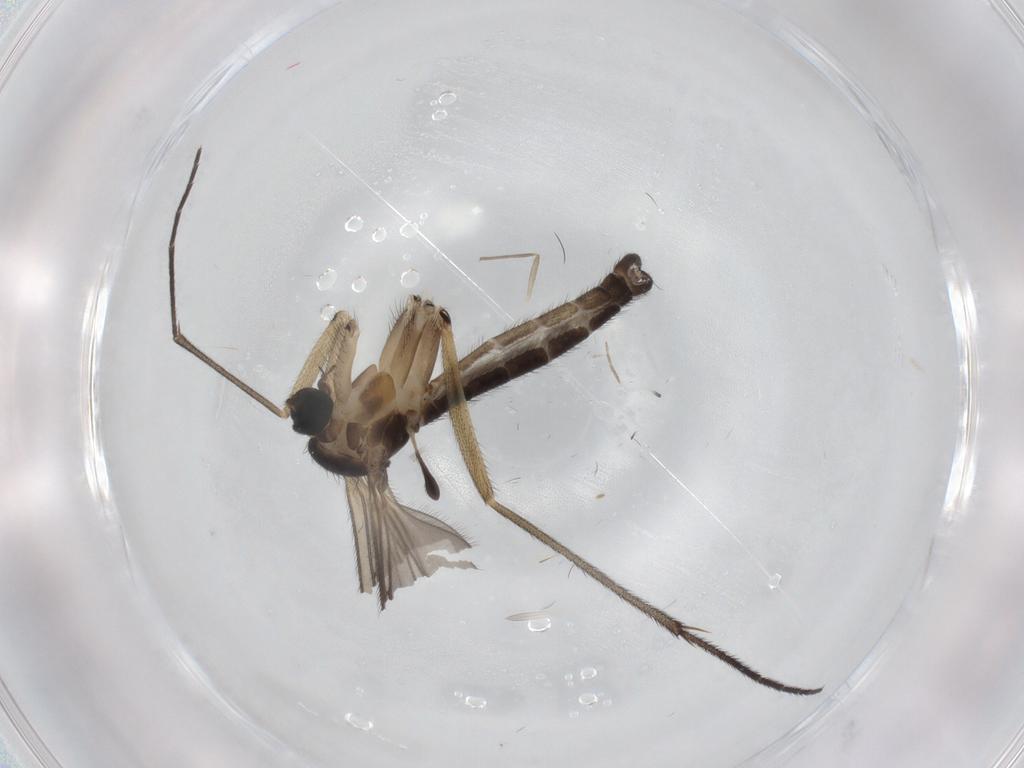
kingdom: Animalia
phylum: Arthropoda
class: Insecta
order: Diptera
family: Sciaridae
